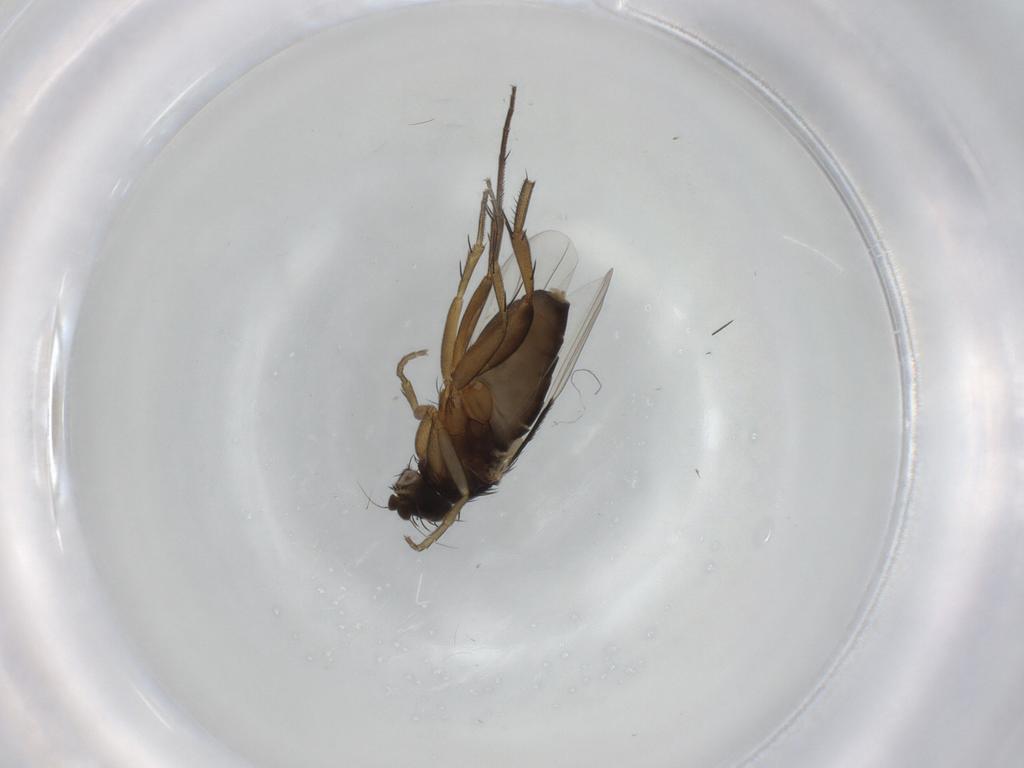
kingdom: Animalia
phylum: Arthropoda
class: Insecta
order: Diptera
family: Phoridae
